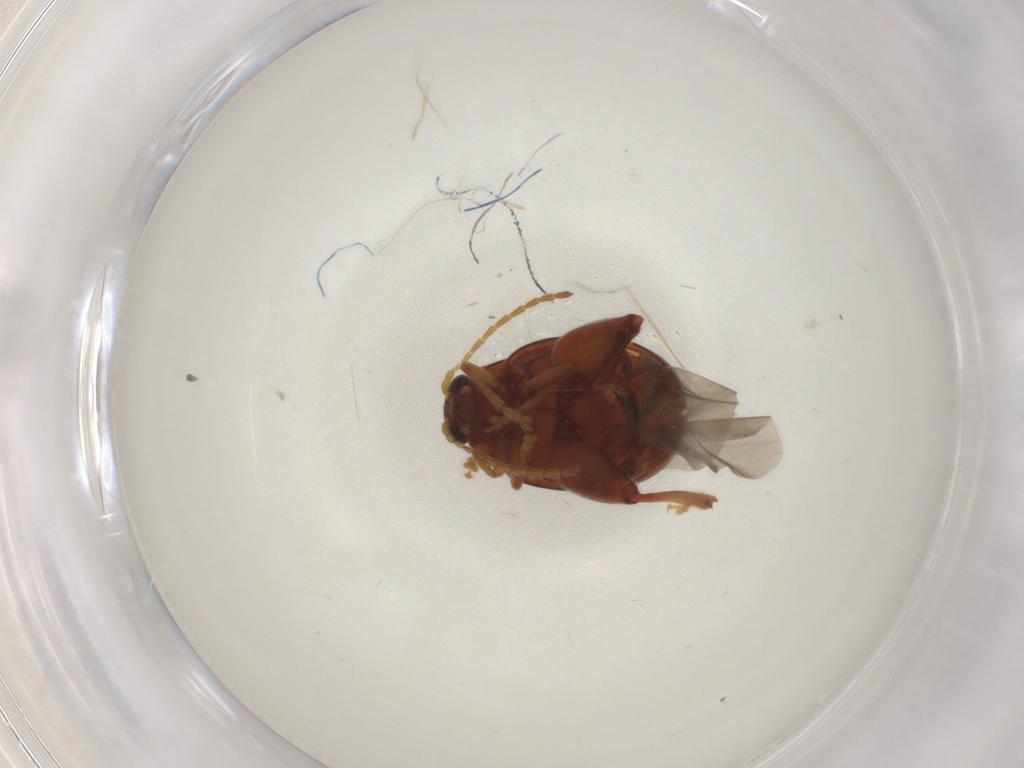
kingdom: Animalia
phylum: Arthropoda
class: Insecta
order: Coleoptera
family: Chrysomelidae
